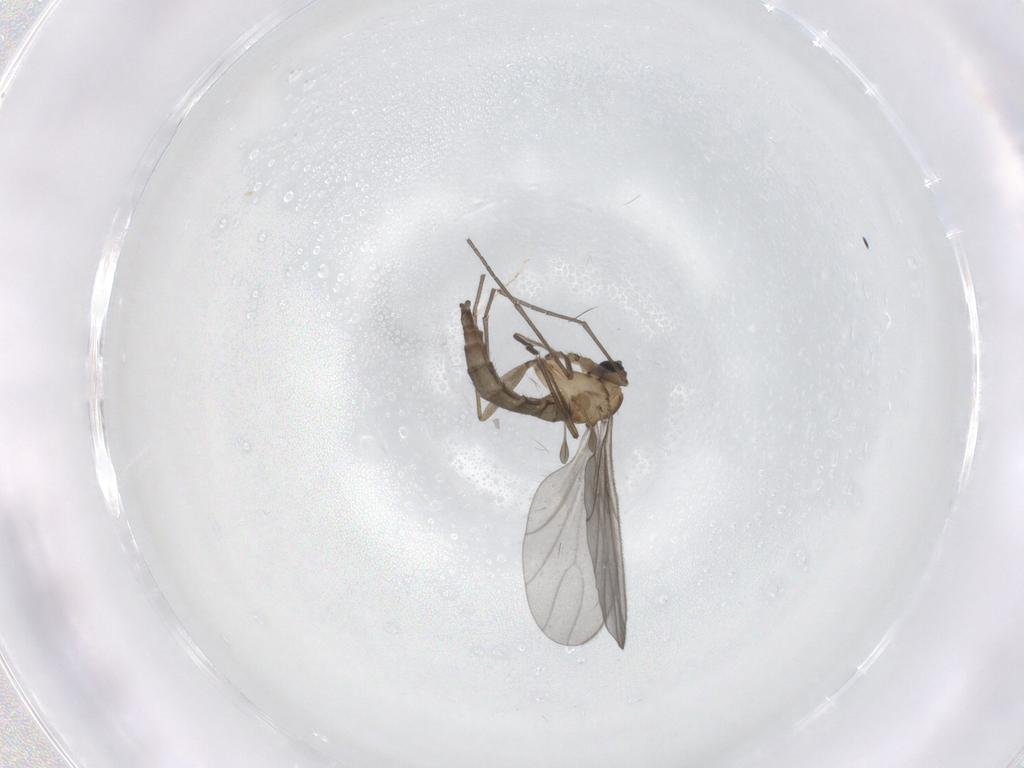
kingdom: Animalia
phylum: Arthropoda
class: Insecta
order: Diptera
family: Sciaridae
